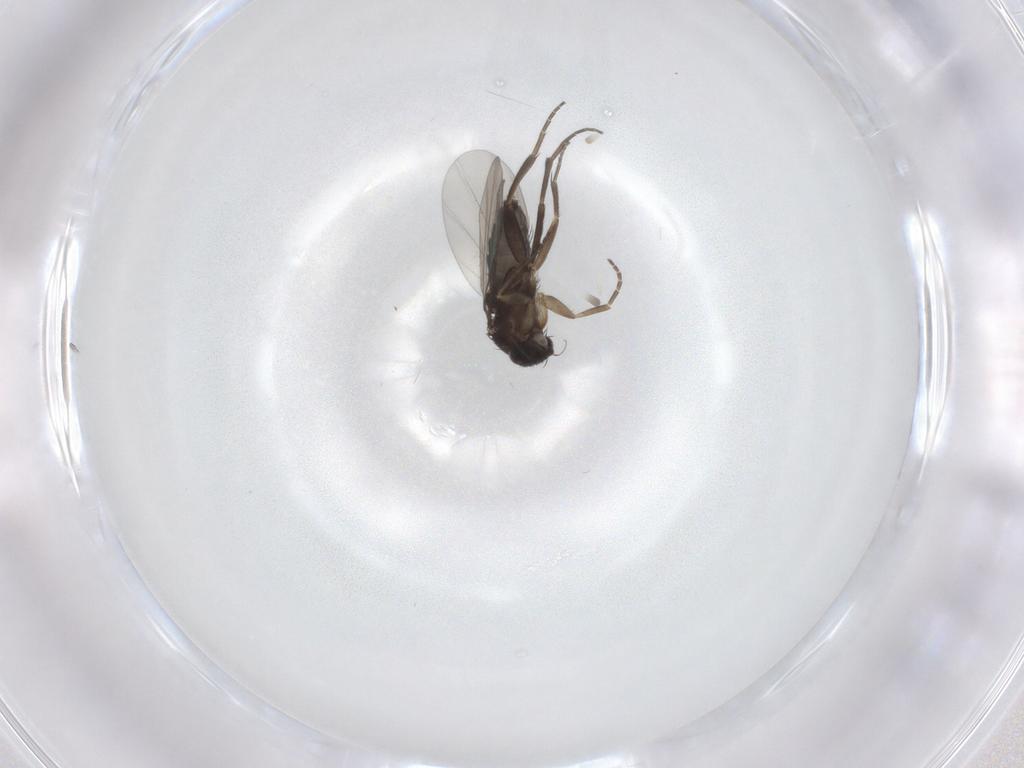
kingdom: Animalia
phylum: Arthropoda
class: Insecta
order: Diptera
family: Phoridae
